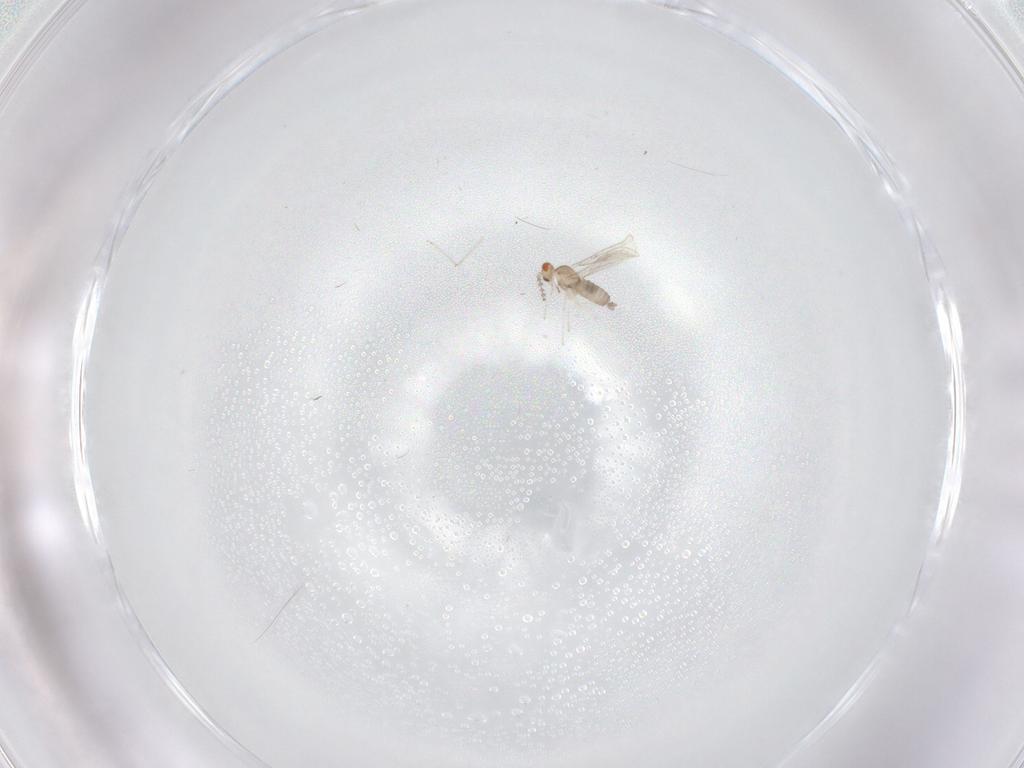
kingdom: Animalia
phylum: Arthropoda
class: Insecta
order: Diptera
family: Cecidomyiidae
